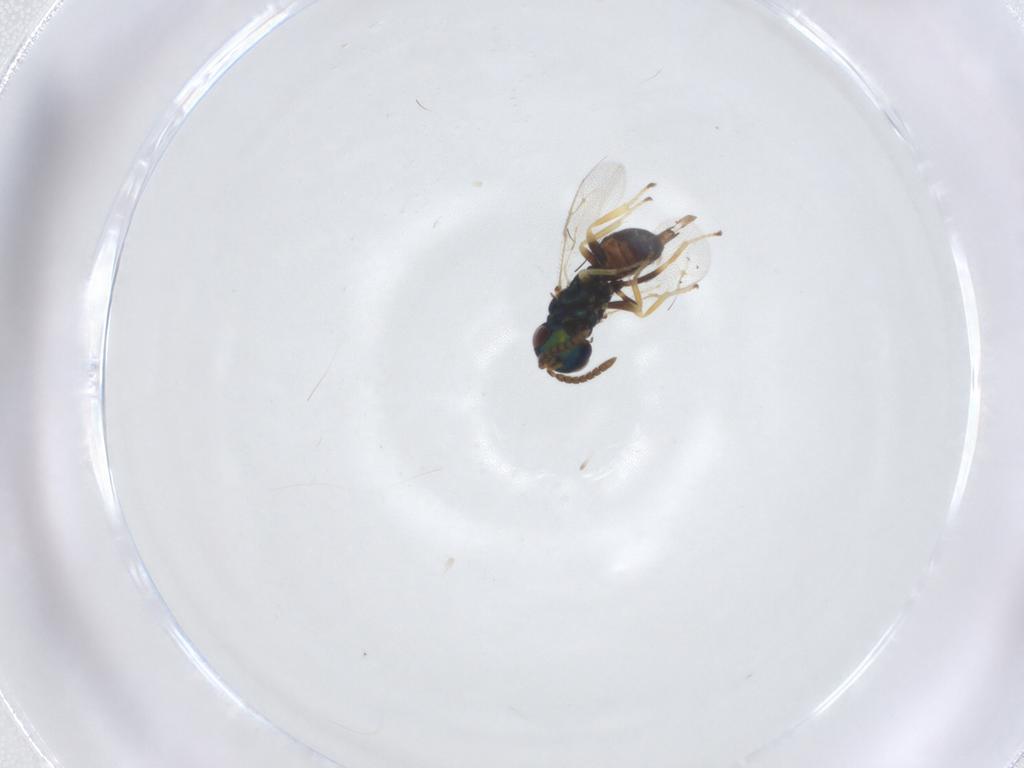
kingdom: Animalia
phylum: Arthropoda
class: Insecta
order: Hymenoptera
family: Pteromalidae
